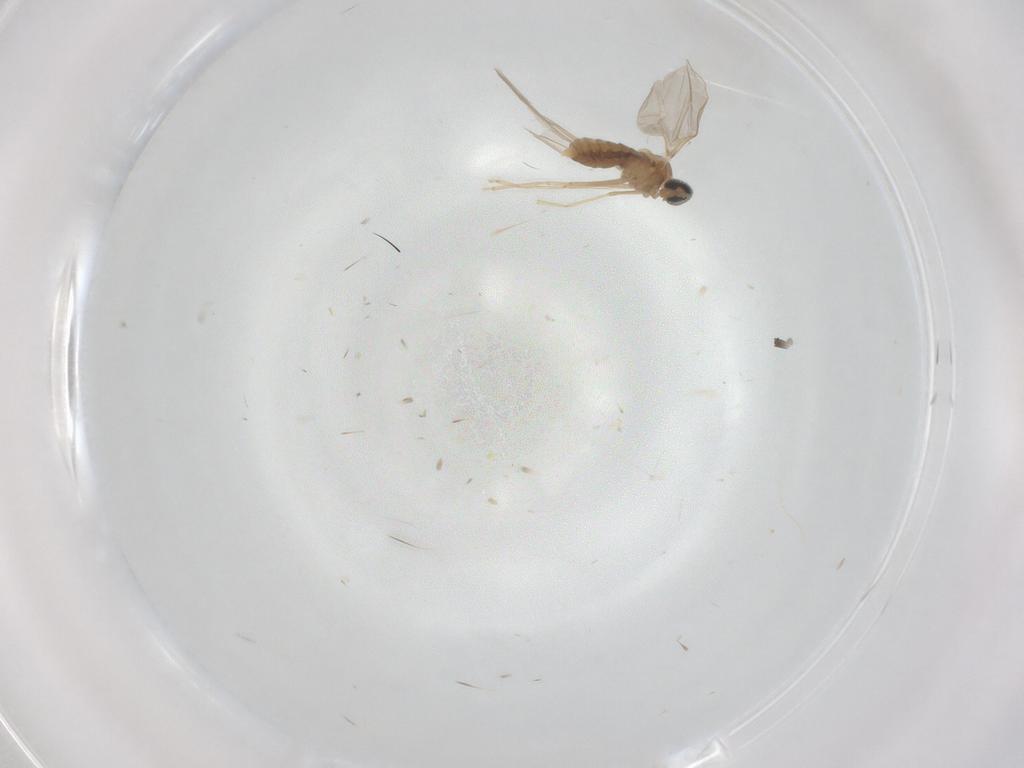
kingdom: Animalia
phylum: Arthropoda
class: Insecta
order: Diptera
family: Cecidomyiidae
